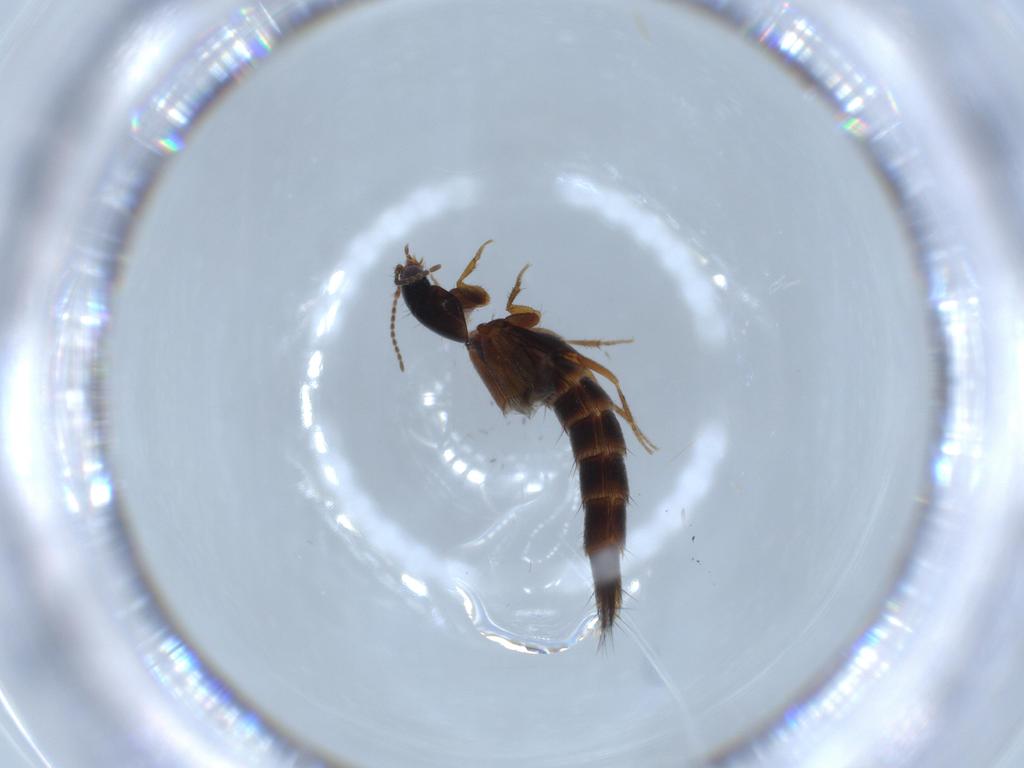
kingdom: Animalia
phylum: Arthropoda
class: Insecta
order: Coleoptera
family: Staphylinidae
